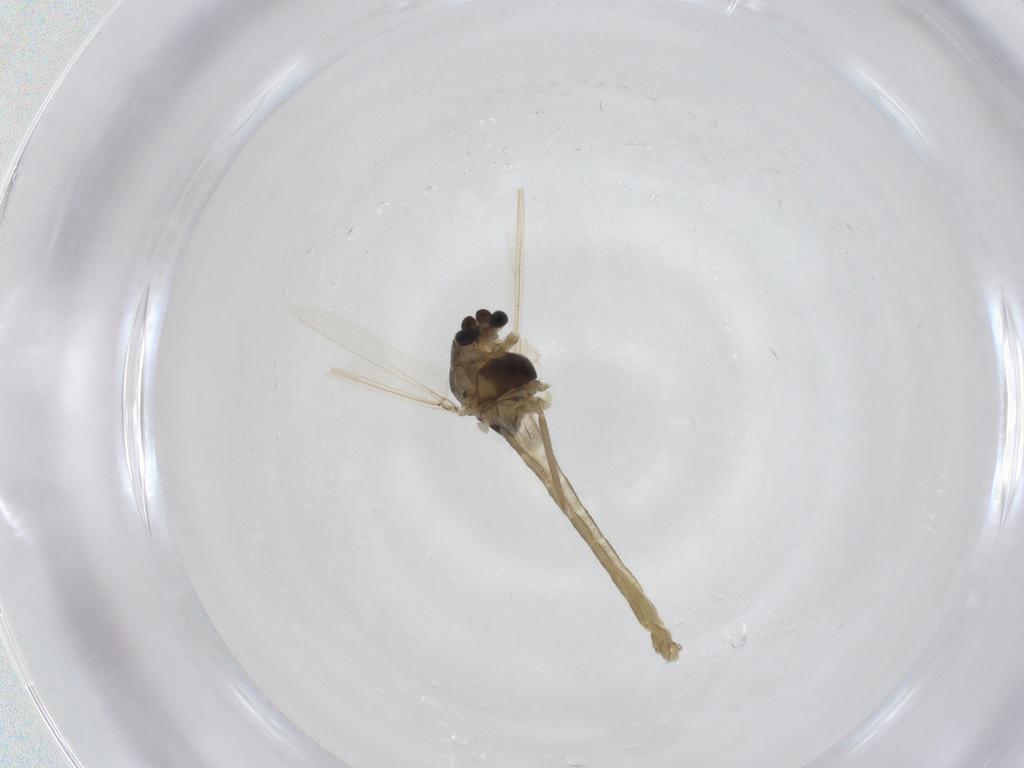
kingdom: Animalia
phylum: Arthropoda
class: Insecta
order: Diptera
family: Chironomidae
